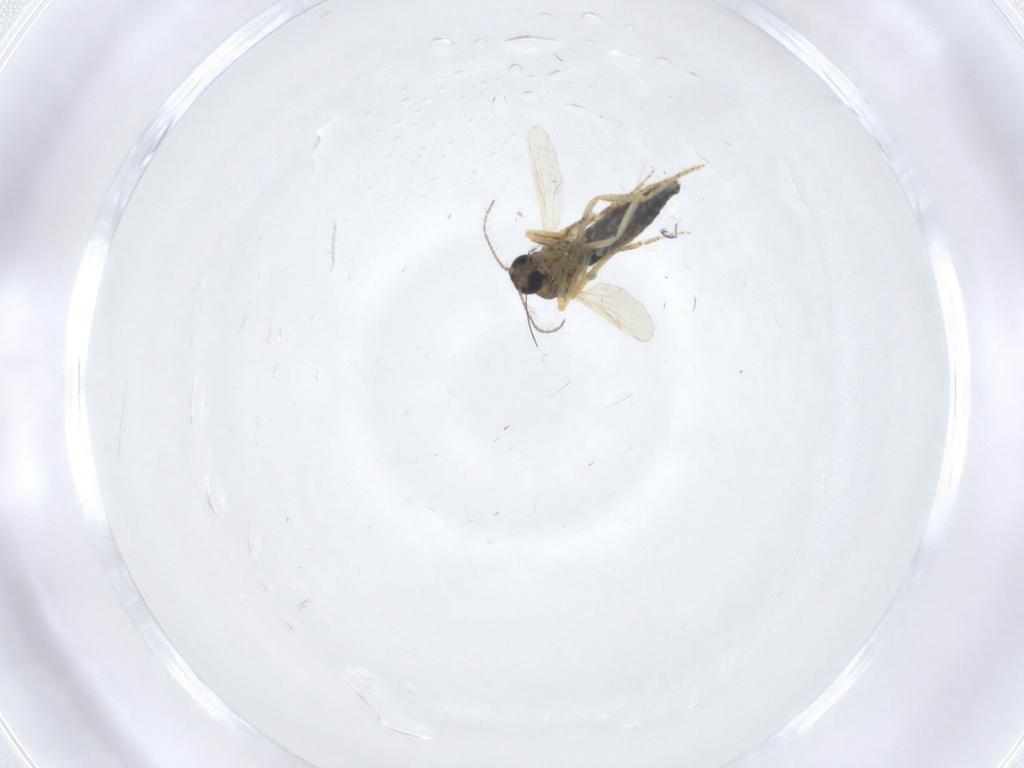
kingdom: Animalia
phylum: Arthropoda
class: Insecta
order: Diptera
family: Ceratopogonidae
